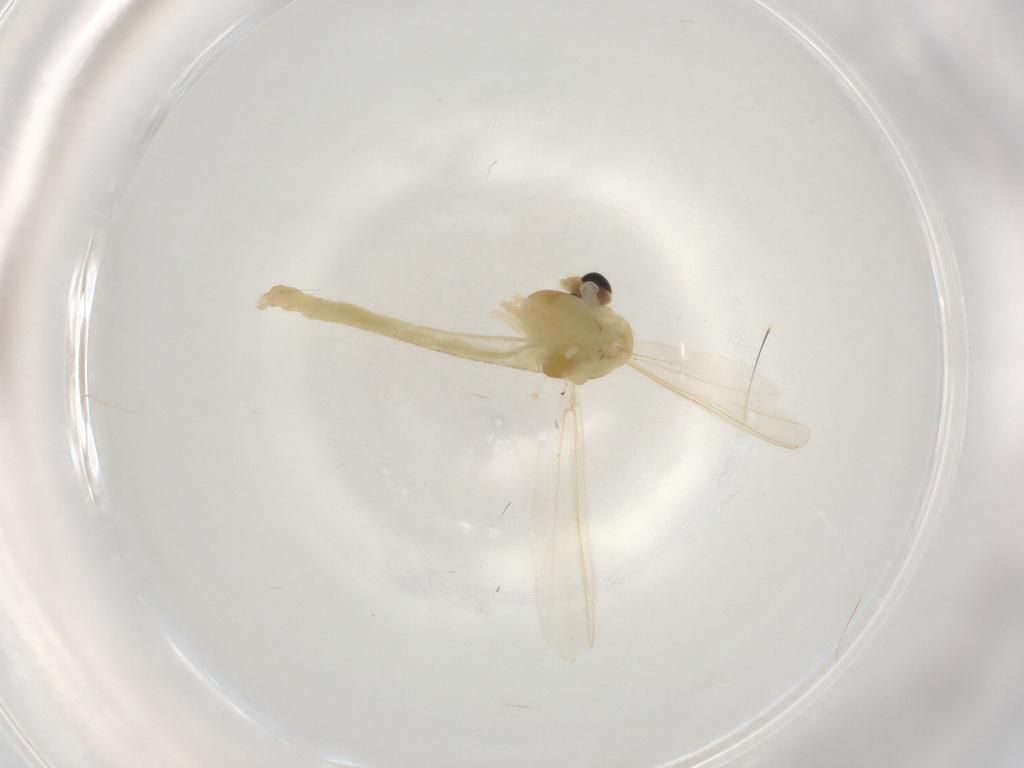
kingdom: Animalia
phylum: Arthropoda
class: Insecta
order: Diptera
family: Chironomidae
